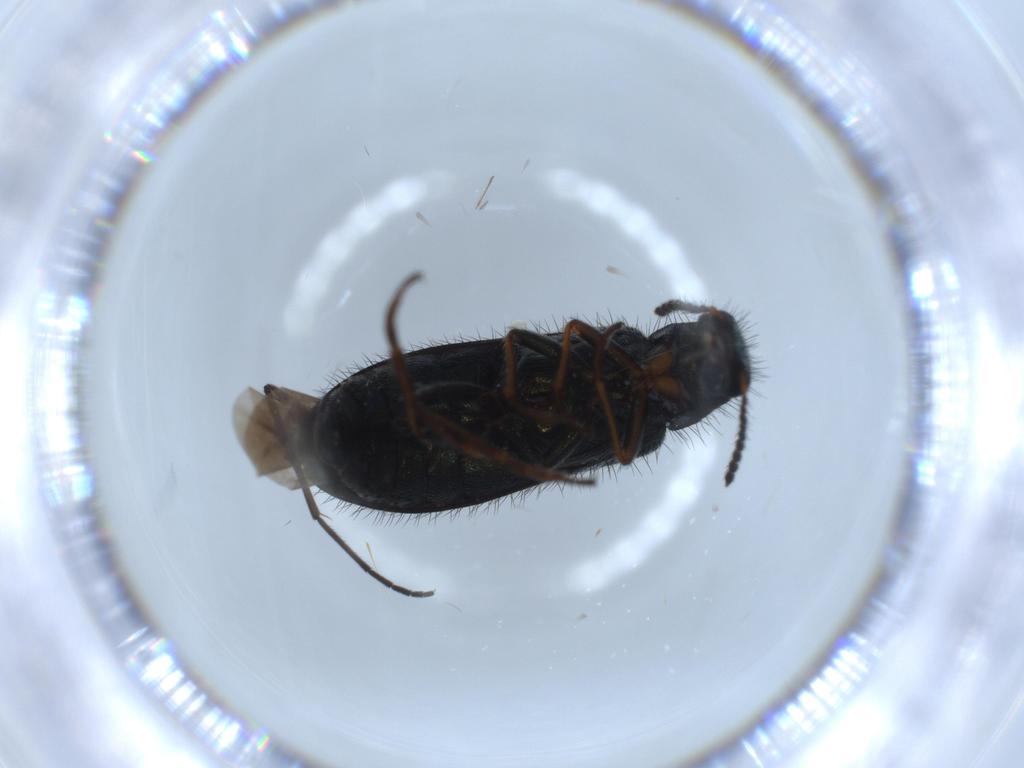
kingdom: Animalia
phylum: Arthropoda
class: Insecta
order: Coleoptera
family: Melyridae
